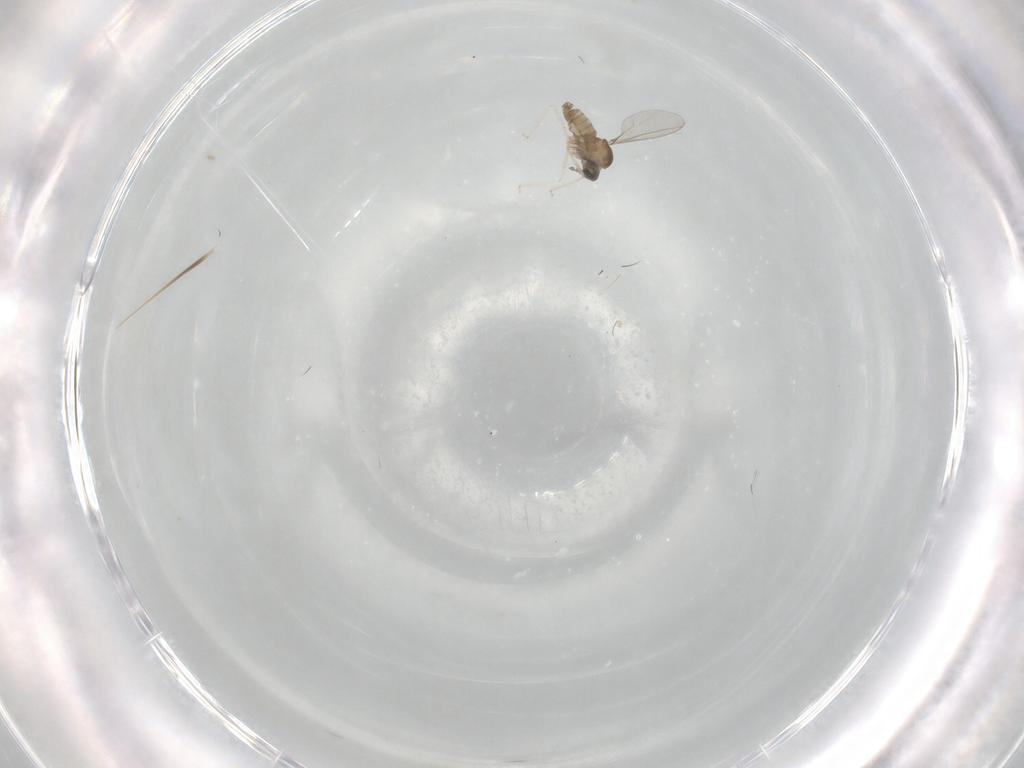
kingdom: Animalia
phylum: Arthropoda
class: Insecta
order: Diptera
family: Cecidomyiidae
